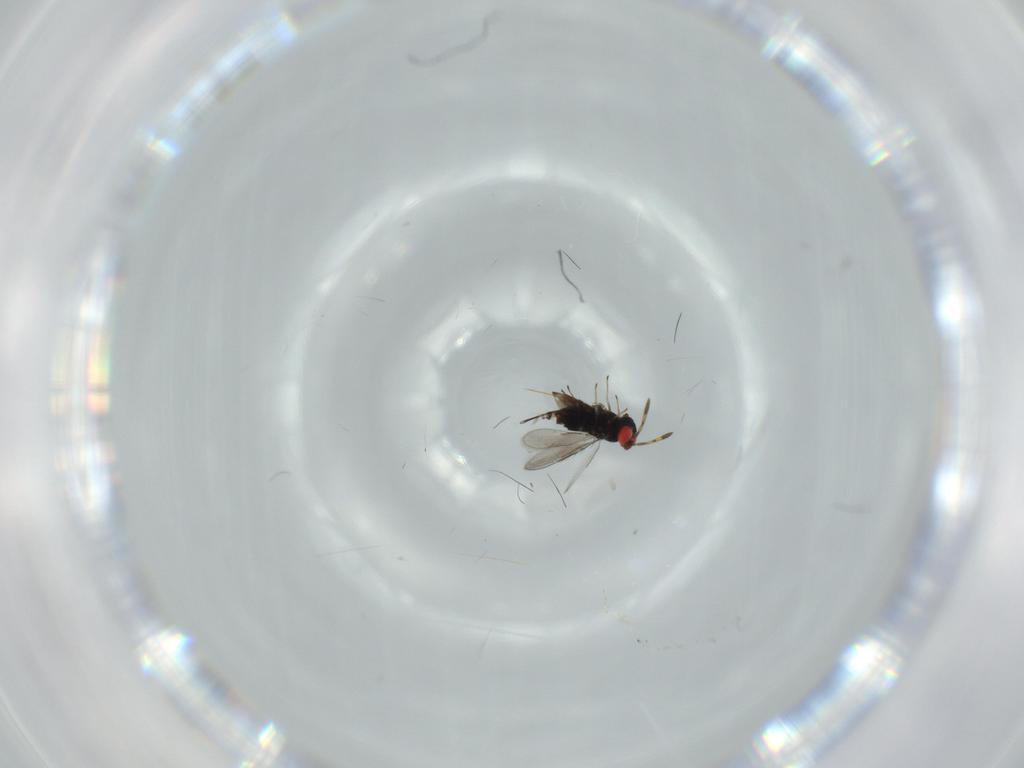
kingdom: Animalia
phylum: Arthropoda
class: Insecta
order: Hymenoptera
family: Azotidae
